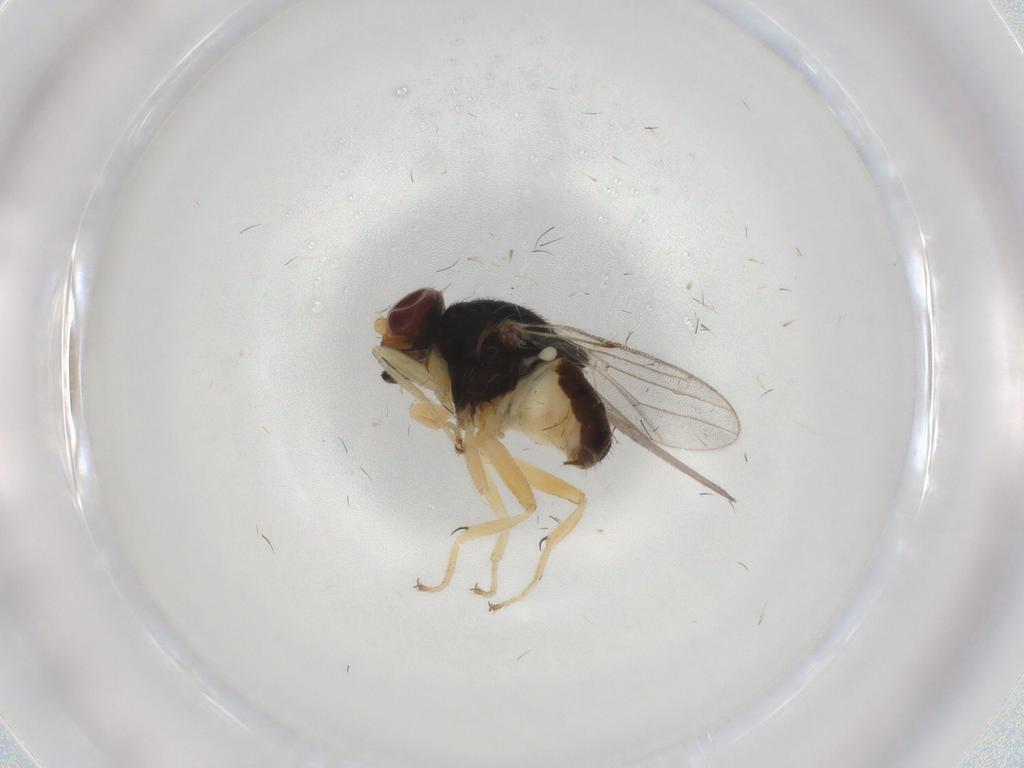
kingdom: Animalia
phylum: Arthropoda
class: Insecta
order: Diptera
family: Chloropidae
